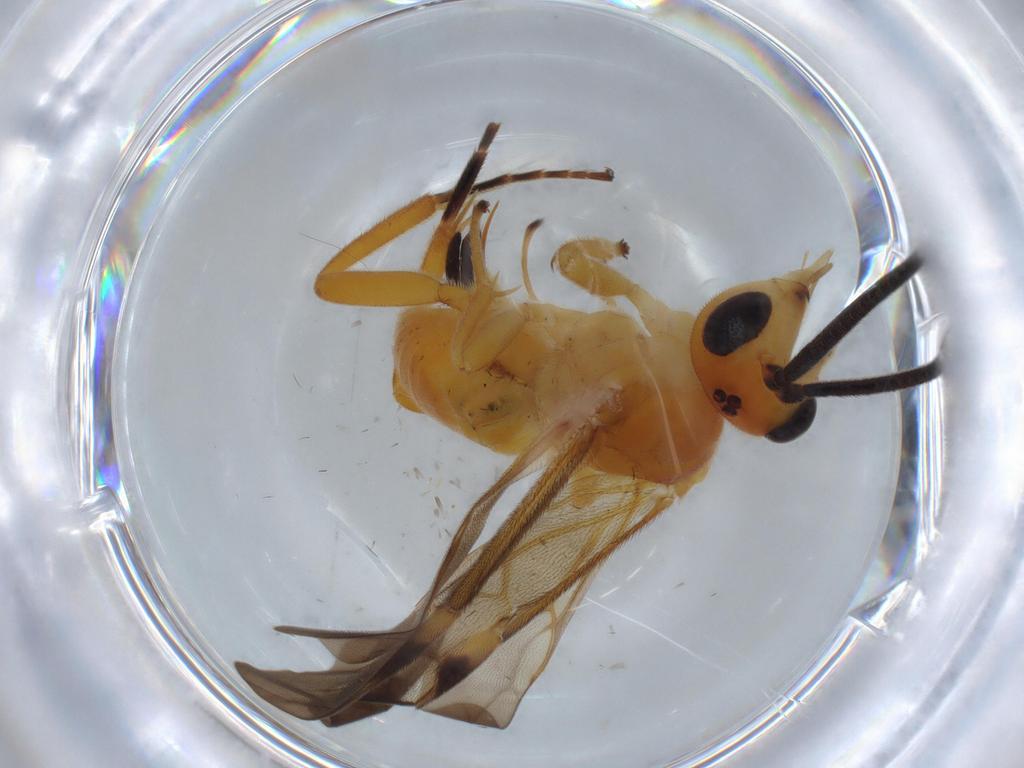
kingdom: Animalia
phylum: Arthropoda
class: Insecta
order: Hymenoptera
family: Braconidae
